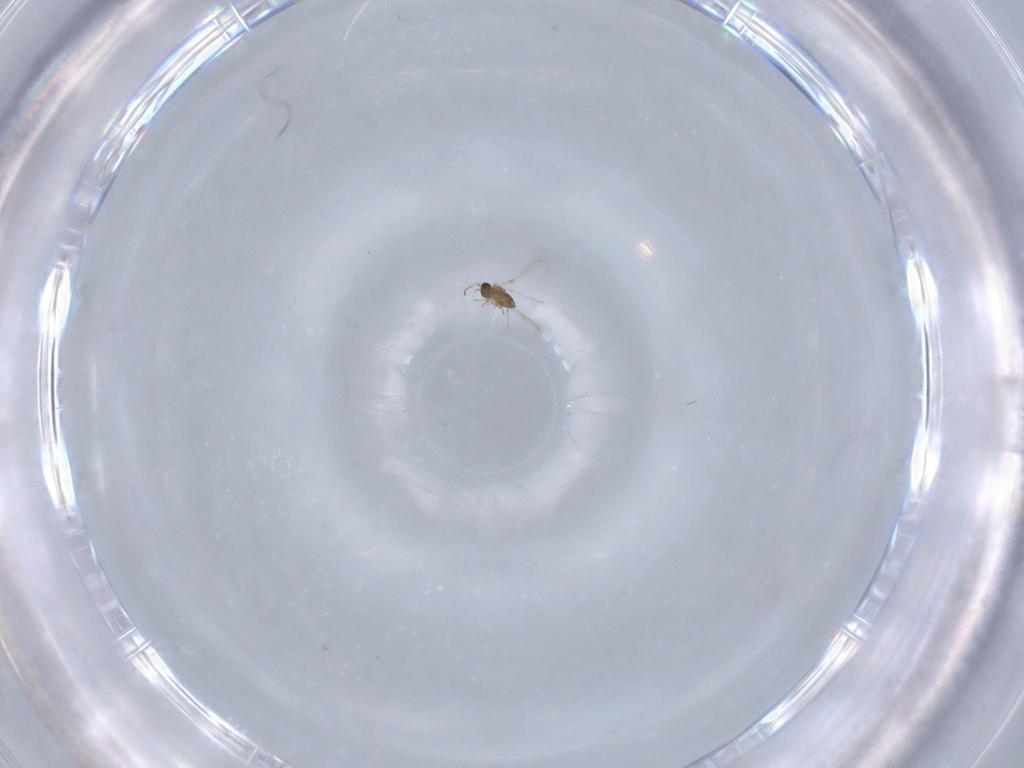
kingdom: Animalia
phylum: Arthropoda
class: Insecta
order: Hymenoptera
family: Mymaridae
